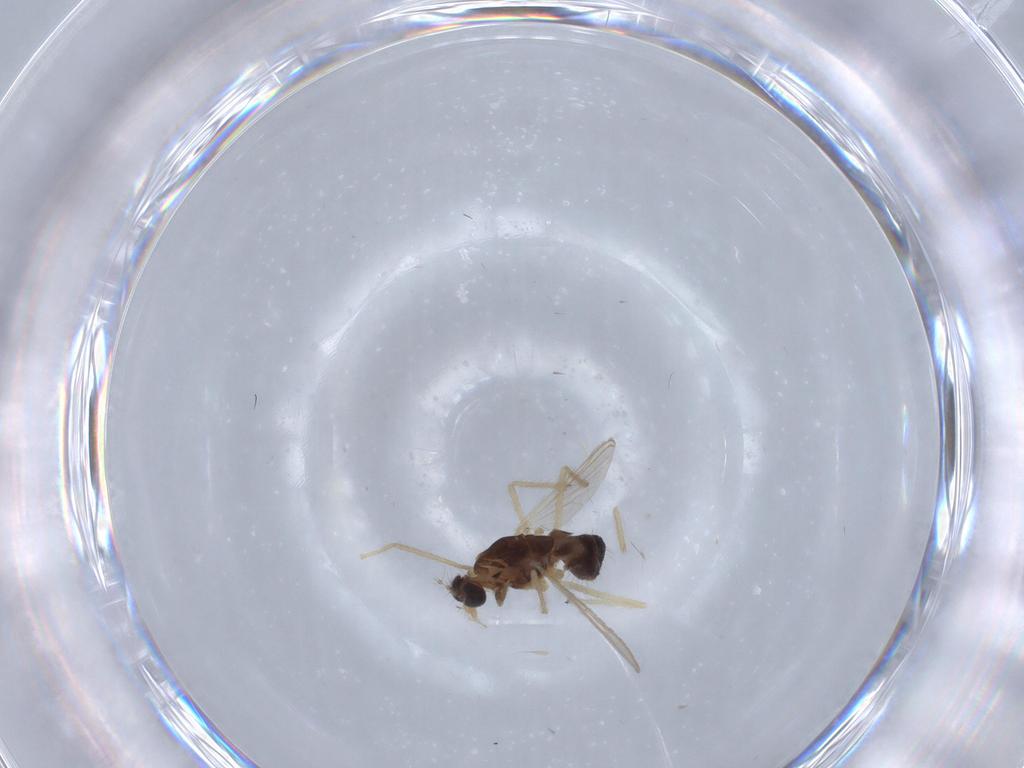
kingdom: Animalia
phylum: Arthropoda
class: Insecta
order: Diptera
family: Chironomidae
